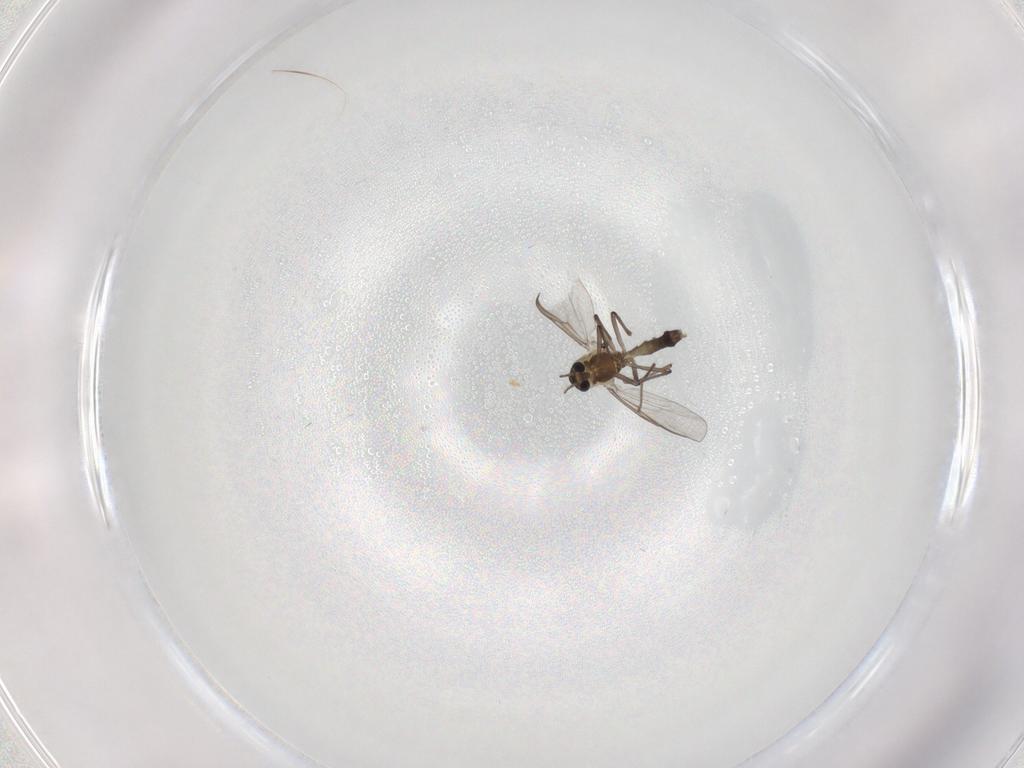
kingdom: Animalia
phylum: Arthropoda
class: Insecta
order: Diptera
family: Chironomidae
